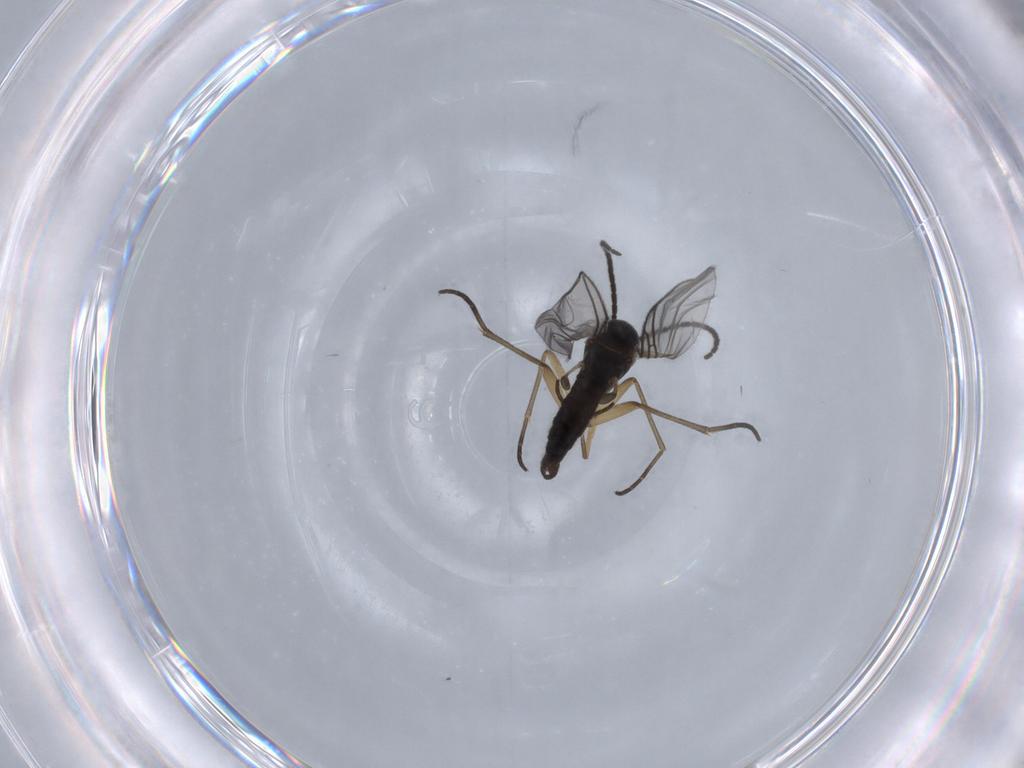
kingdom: Animalia
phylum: Arthropoda
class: Insecta
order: Diptera
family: Sciaridae
